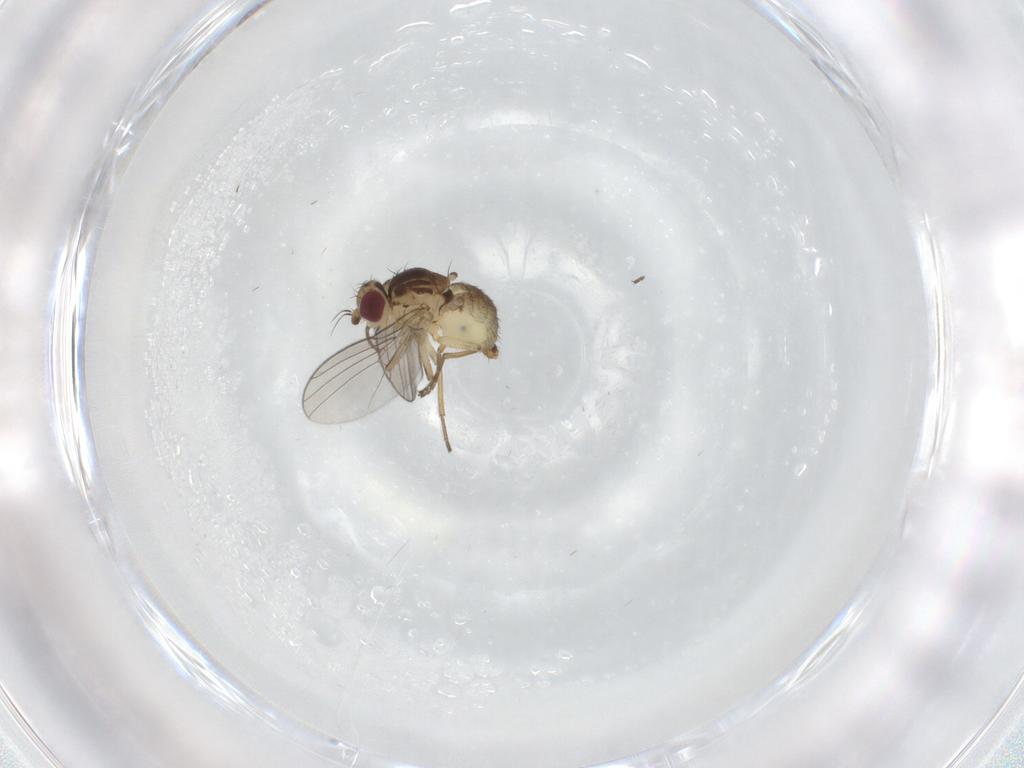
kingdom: Animalia
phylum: Arthropoda
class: Insecta
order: Diptera
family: Agromyzidae
